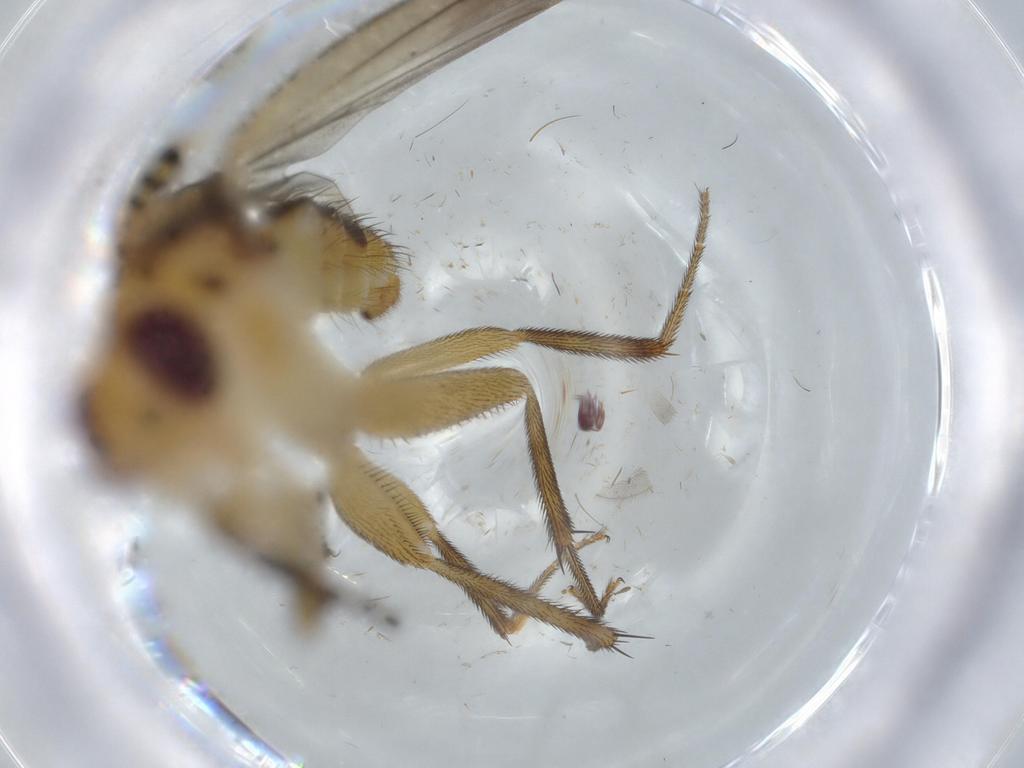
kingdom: Animalia
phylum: Arthropoda
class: Insecta
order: Diptera
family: Clusiidae
